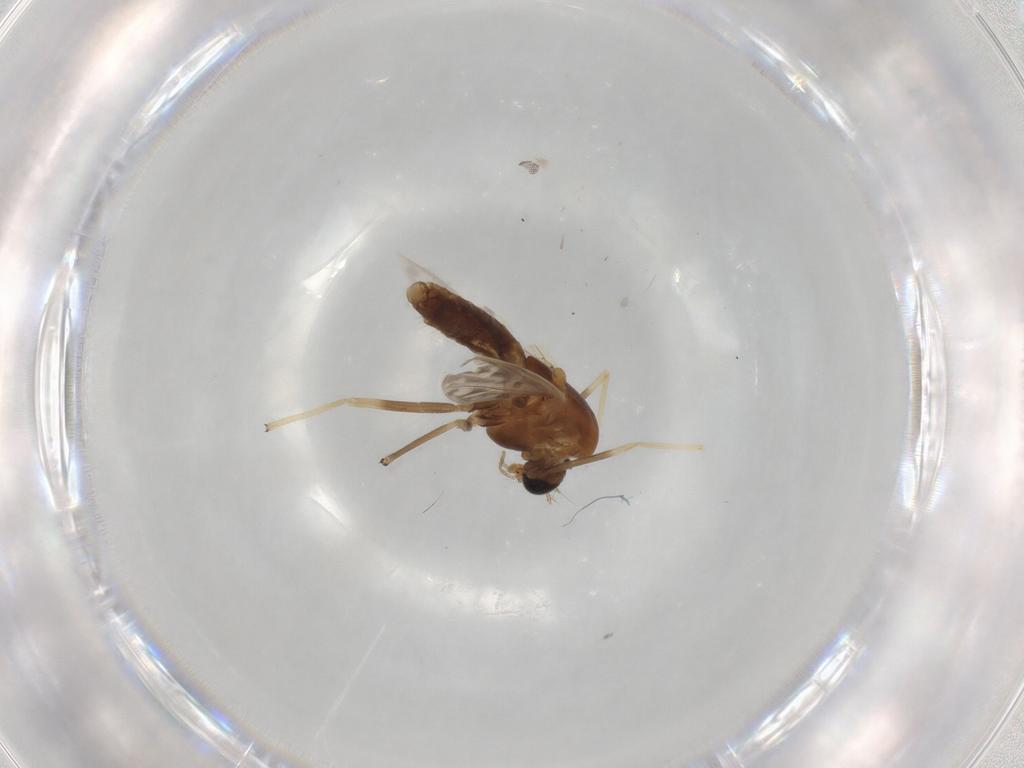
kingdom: Animalia
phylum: Arthropoda
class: Insecta
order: Diptera
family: Chironomidae
